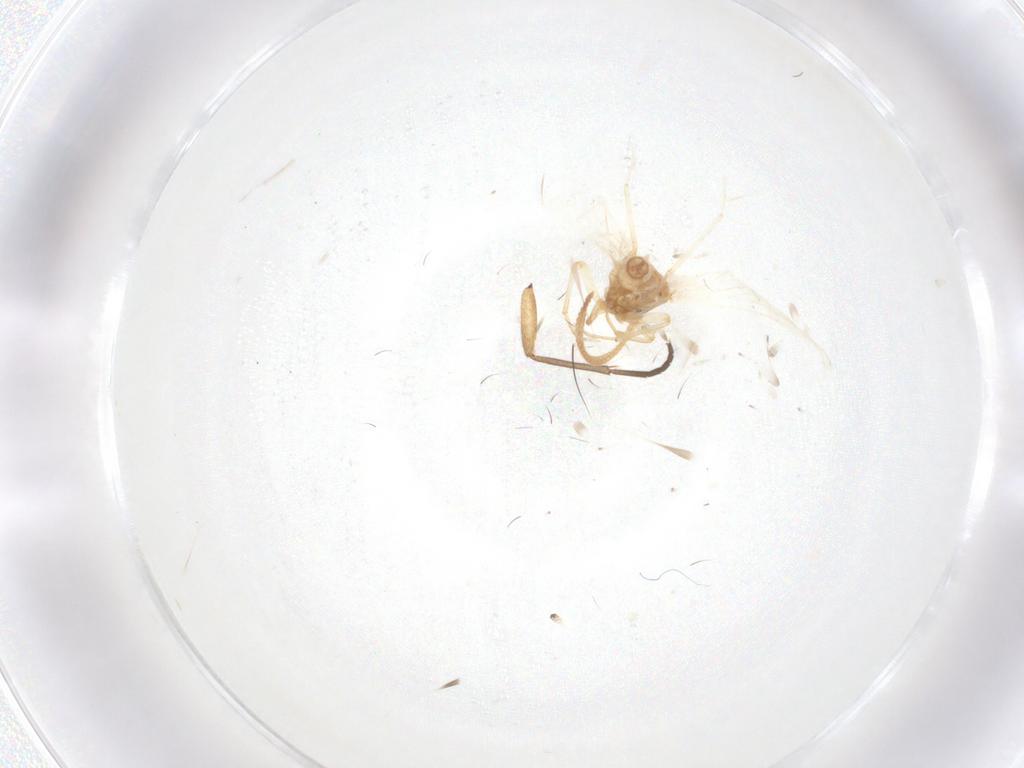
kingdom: Animalia
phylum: Arthropoda
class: Insecta
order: Neuroptera
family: Coniopterygidae
